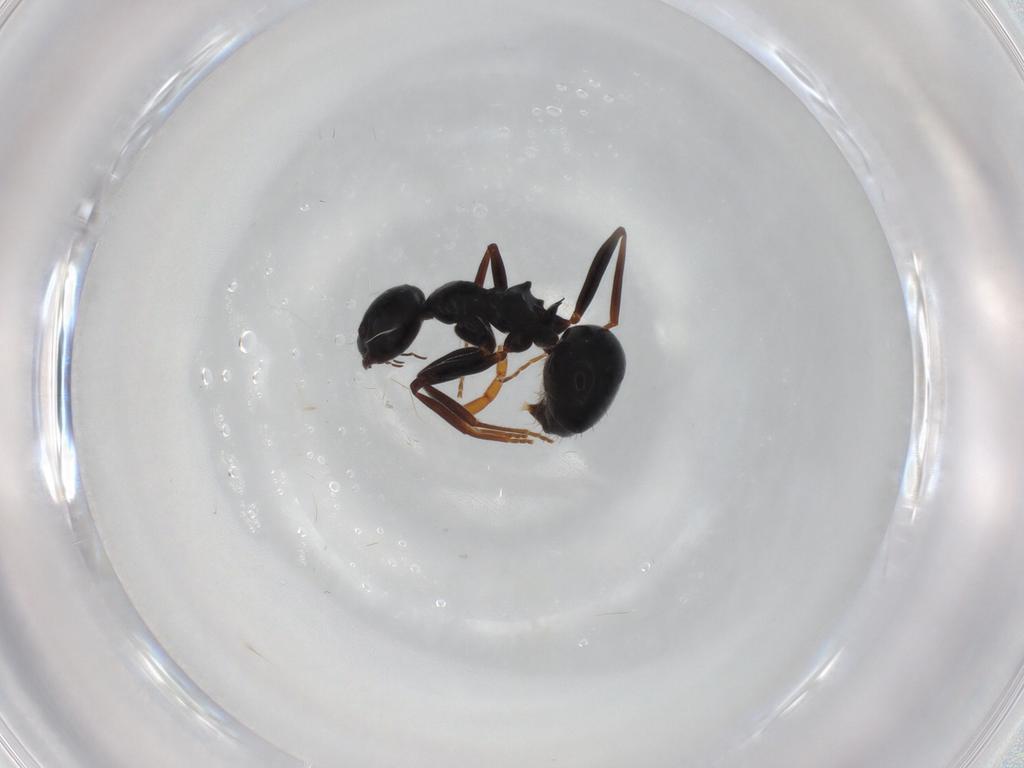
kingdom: Animalia
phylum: Arthropoda
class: Insecta
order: Hymenoptera
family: Formicidae
